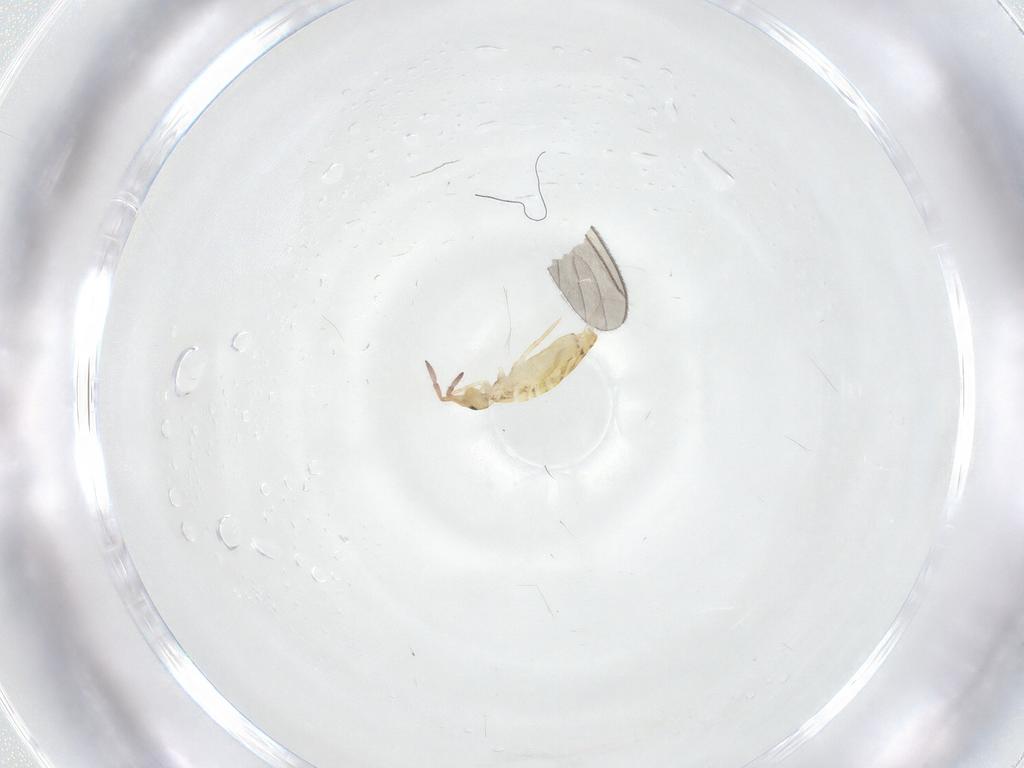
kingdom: Animalia
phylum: Arthropoda
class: Collembola
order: Entomobryomorpha
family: Entomobryidae
